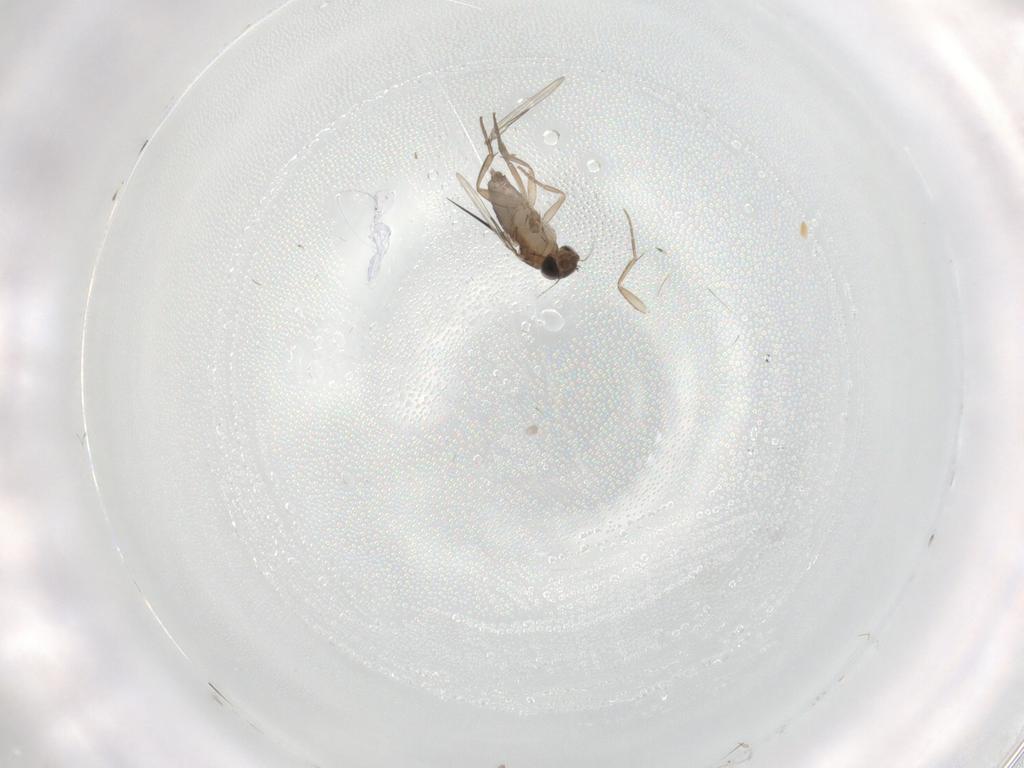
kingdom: Animalia
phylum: Arthropoda
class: Insecta
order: Diptera
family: Phoridae
